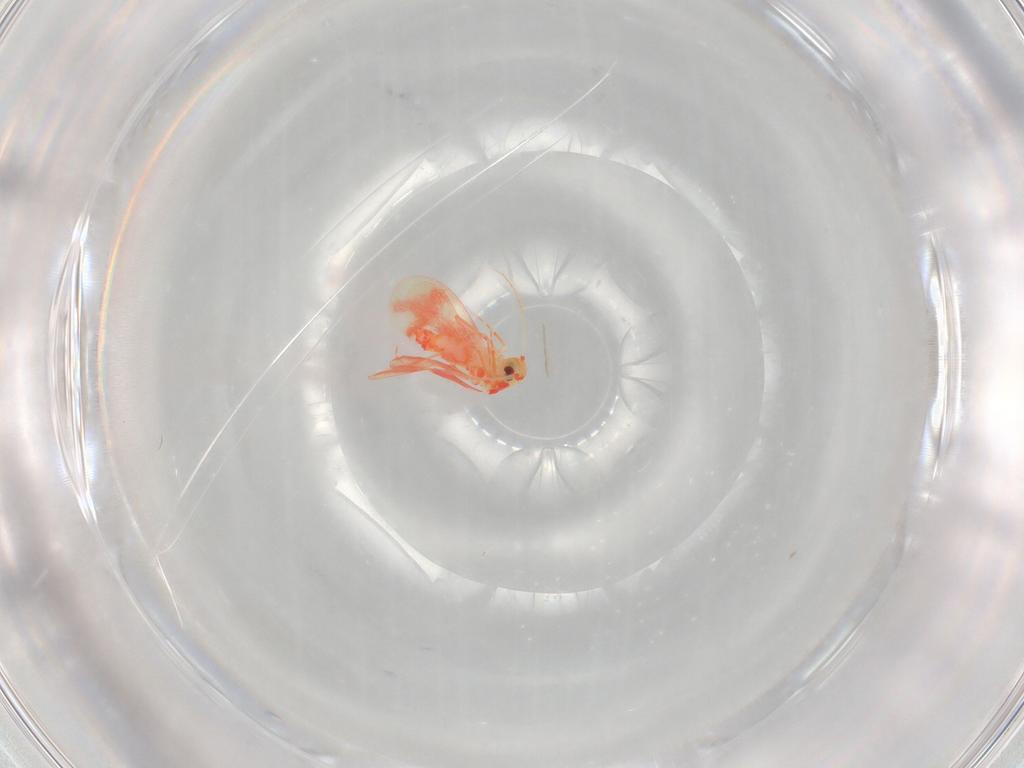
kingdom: Animalia
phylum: Arthropoda
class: Insecta
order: Hemiptera
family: Aleyrodidae
